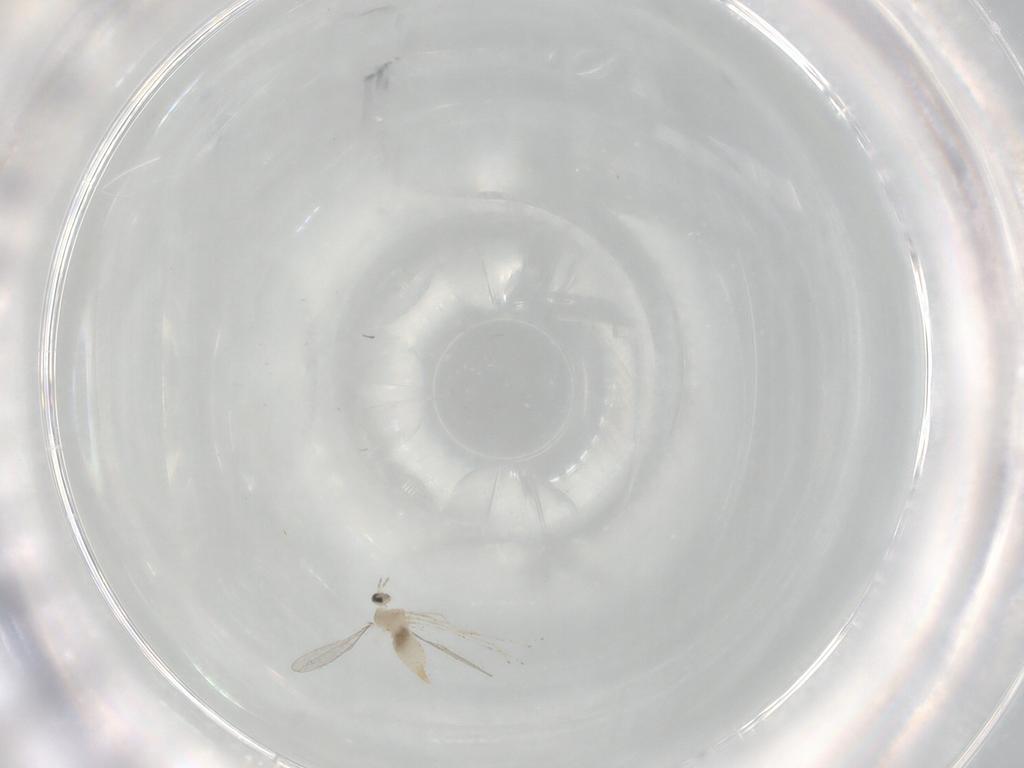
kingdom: Animalia
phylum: Arthropoda
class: Insecta
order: Diptera
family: Cecidomyiidae
